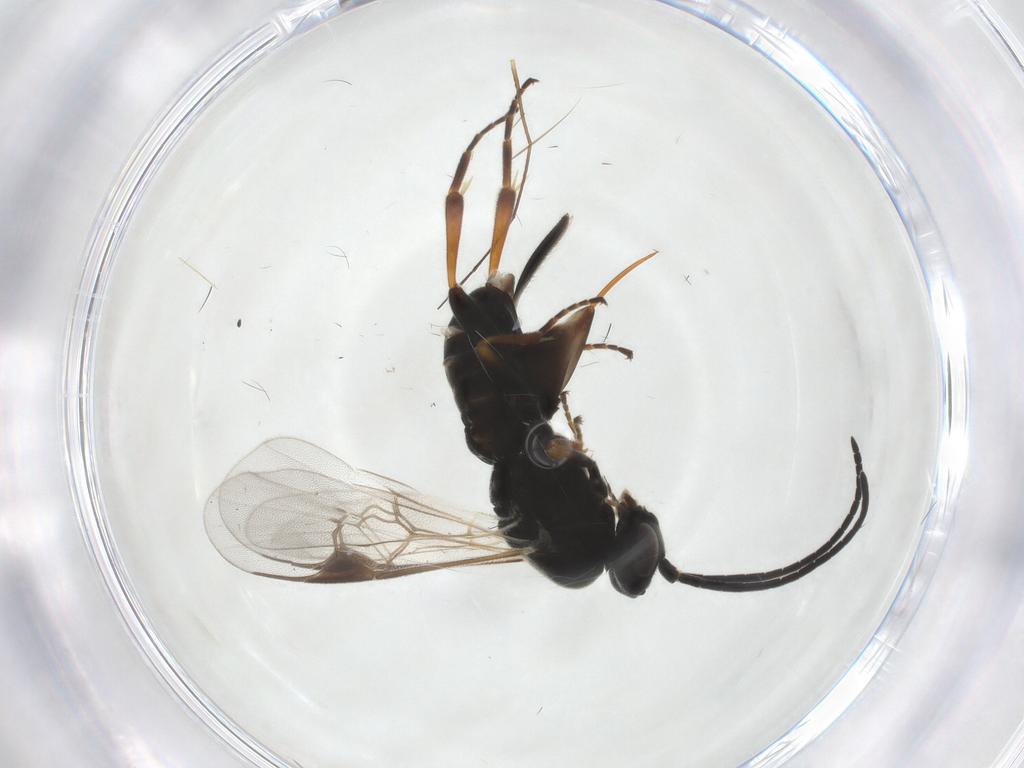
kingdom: Animalia
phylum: Arthropoda
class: Insecta
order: Hymenoptera
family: Braconidae
